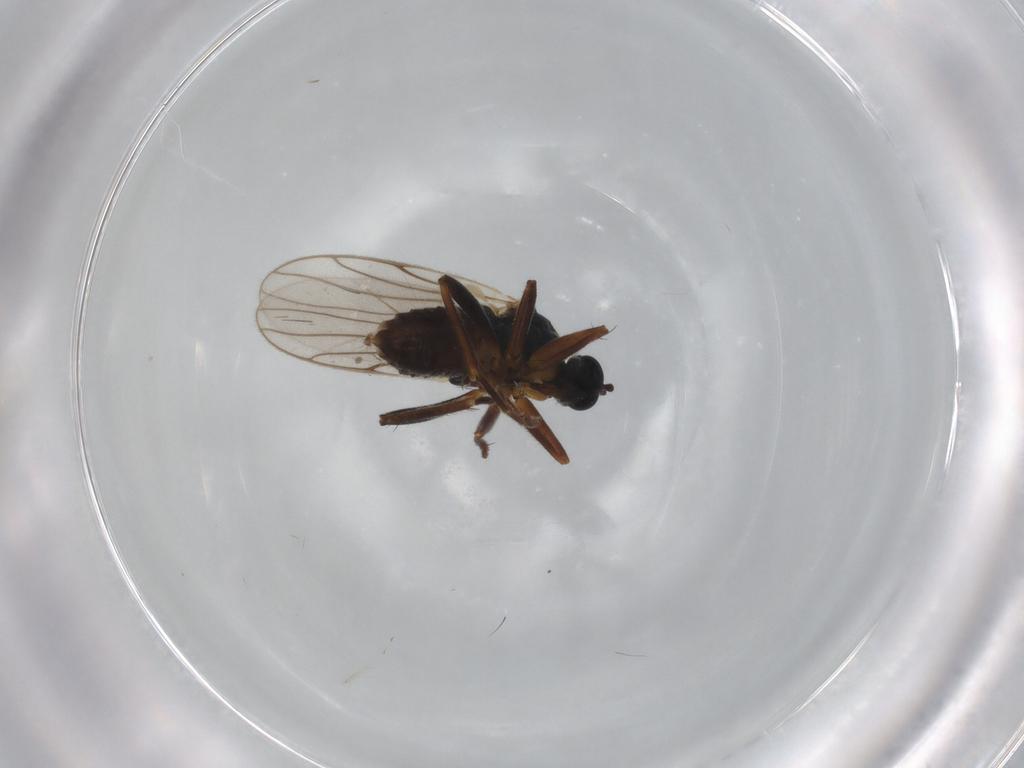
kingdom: Animalia
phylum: Arthropoda
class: Insecta
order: Diptera
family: Hybotidae
